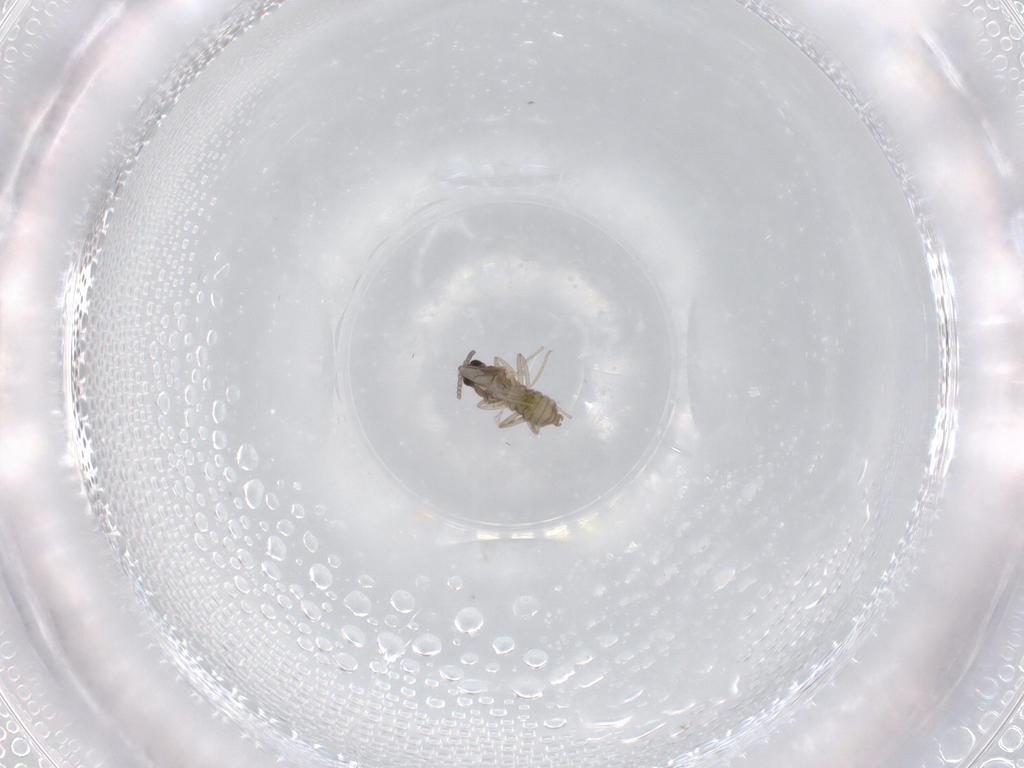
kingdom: Animalia
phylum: Arthropoda
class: Insecta
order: Diptera
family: Cecidomyiidae
